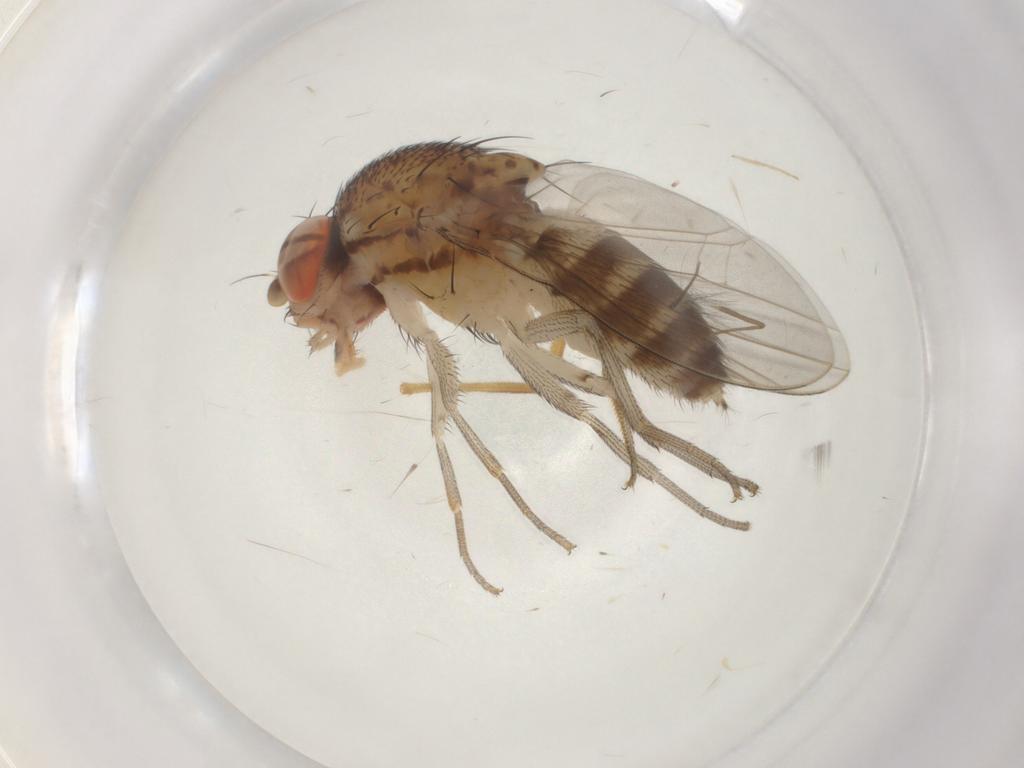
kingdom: Animalia
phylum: Arthropoda
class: Insecta
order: Diptera
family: Drosophilidae
